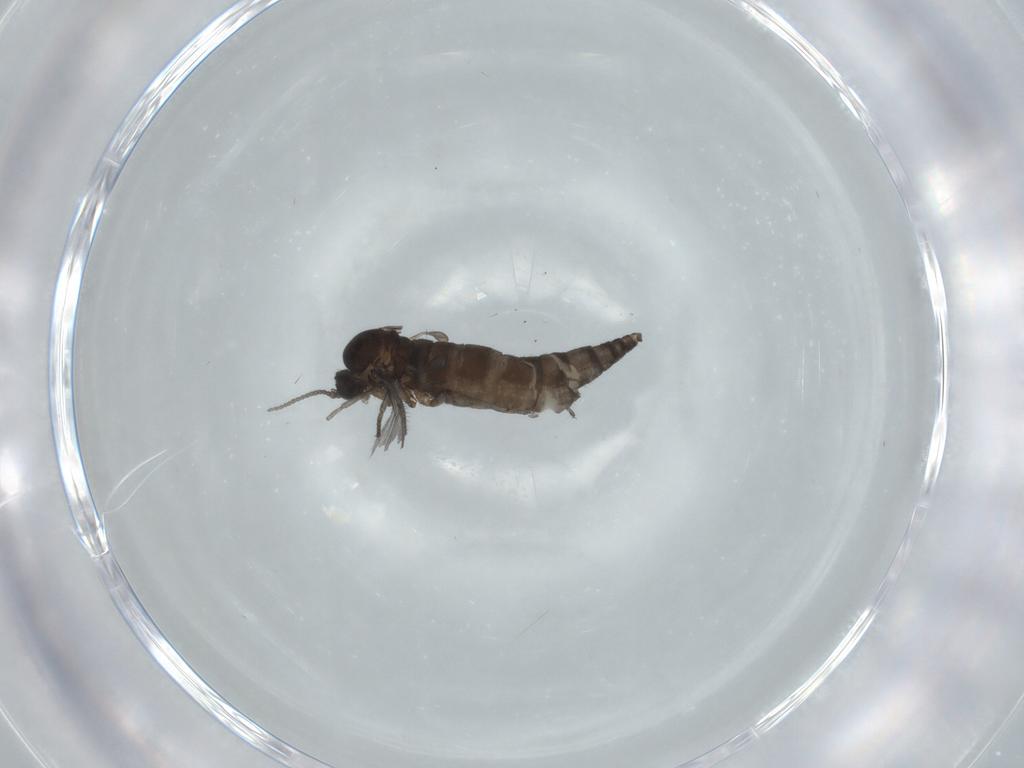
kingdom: Animalia
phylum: Arthropoda
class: Insecta
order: Diptera
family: Sciaridae
